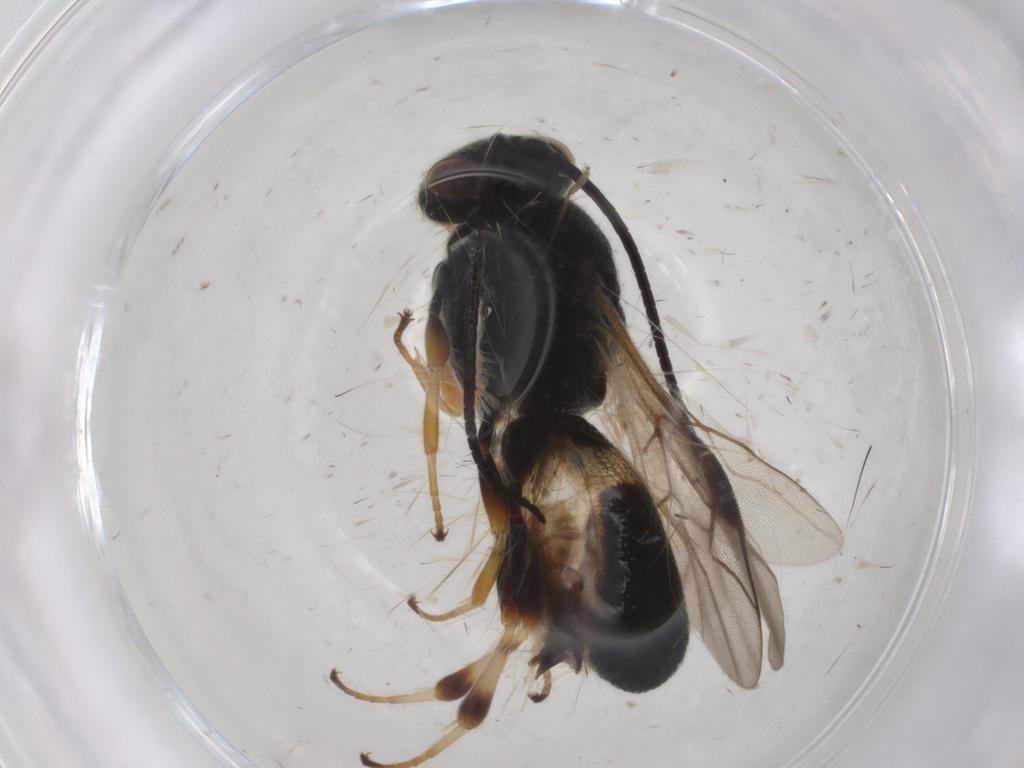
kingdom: Animalia
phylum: Arthropoda
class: Insecta
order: Hymenoptera
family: Braconidae
